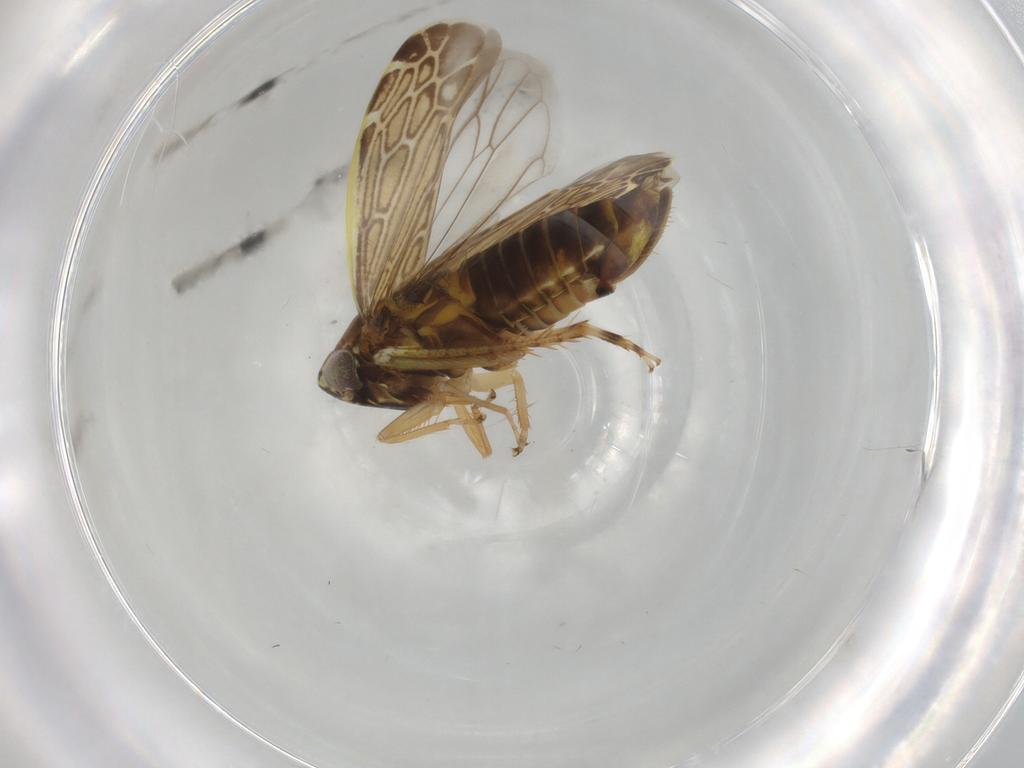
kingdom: Animalia
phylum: Arthropoda
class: Insecta
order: Hemiptera
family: Cicadellidae
